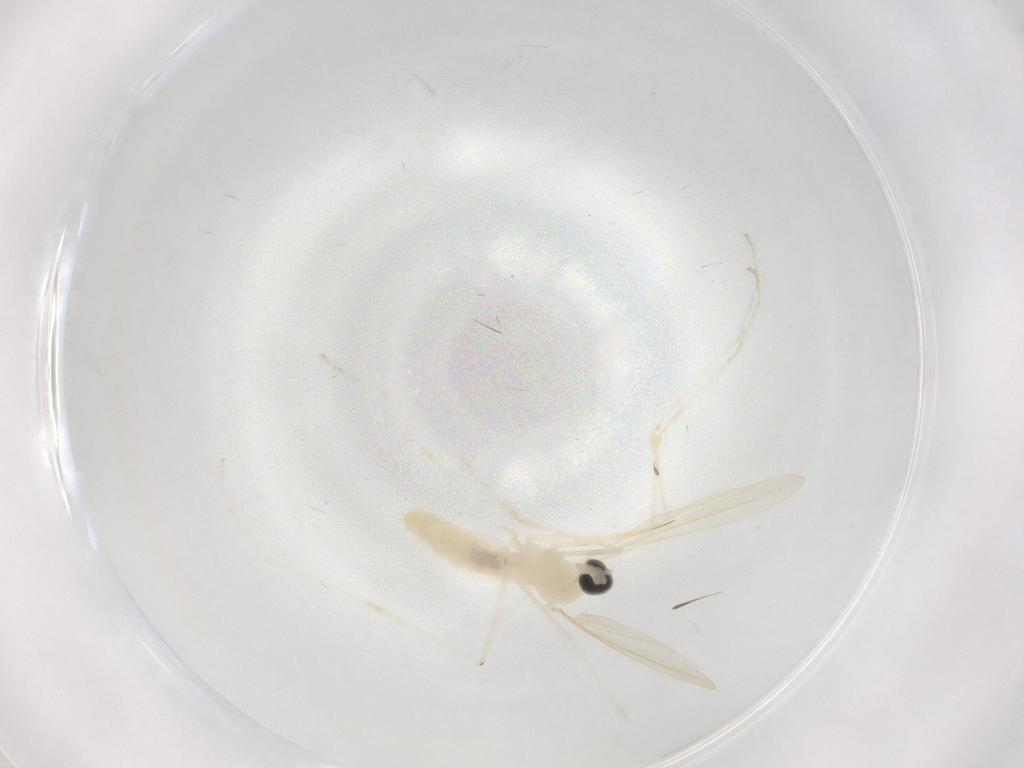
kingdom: Animalia
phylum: Arthropoda
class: Insecta
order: Diptera
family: Cecidomyiidae
